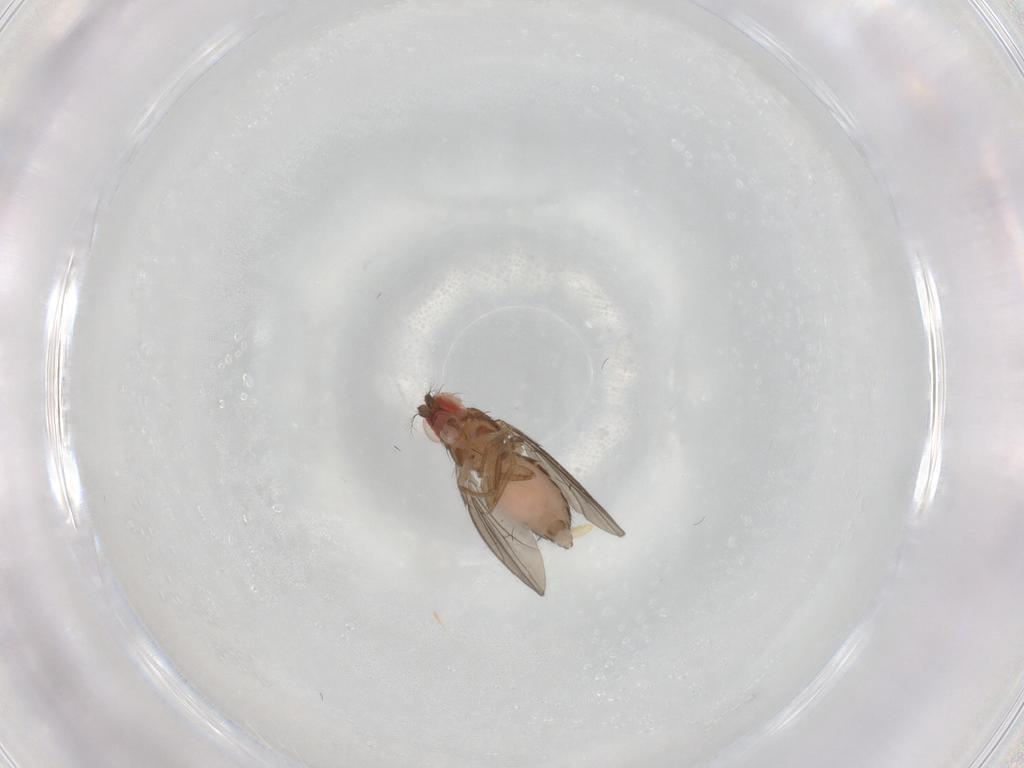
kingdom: Animalia
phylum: Arthropoda
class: Insecta
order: Diptera
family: Drosophilidae
